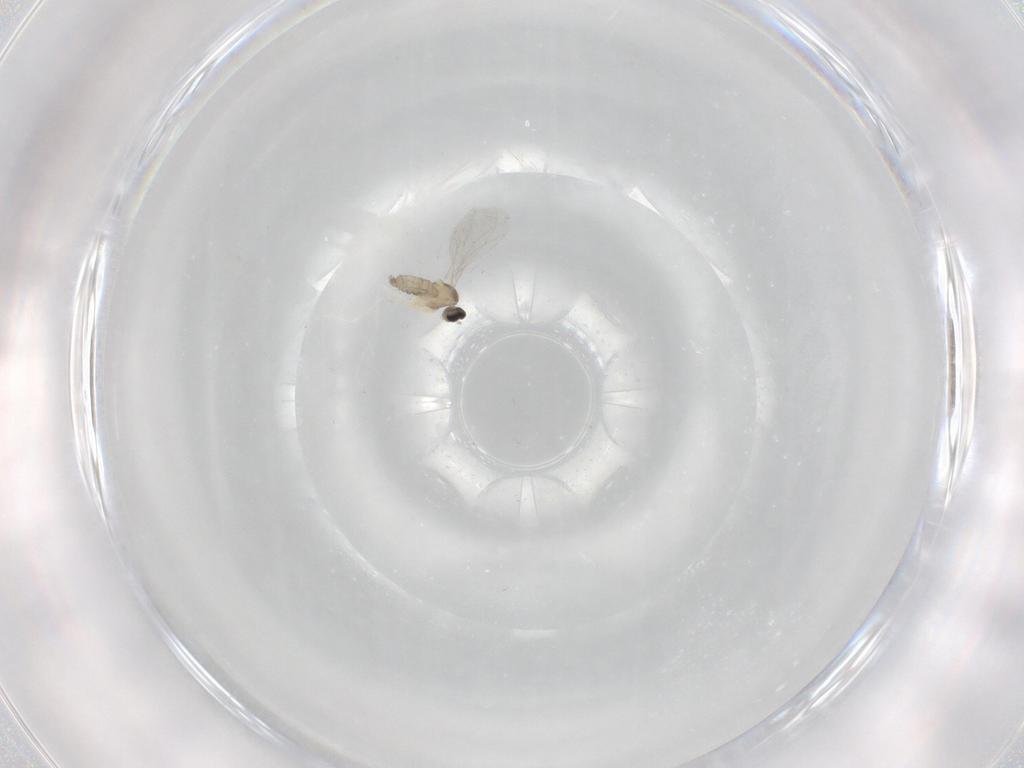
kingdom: Animalia
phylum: Arthropoda
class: Insecta
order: Diptera
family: Cecidomyiidae
